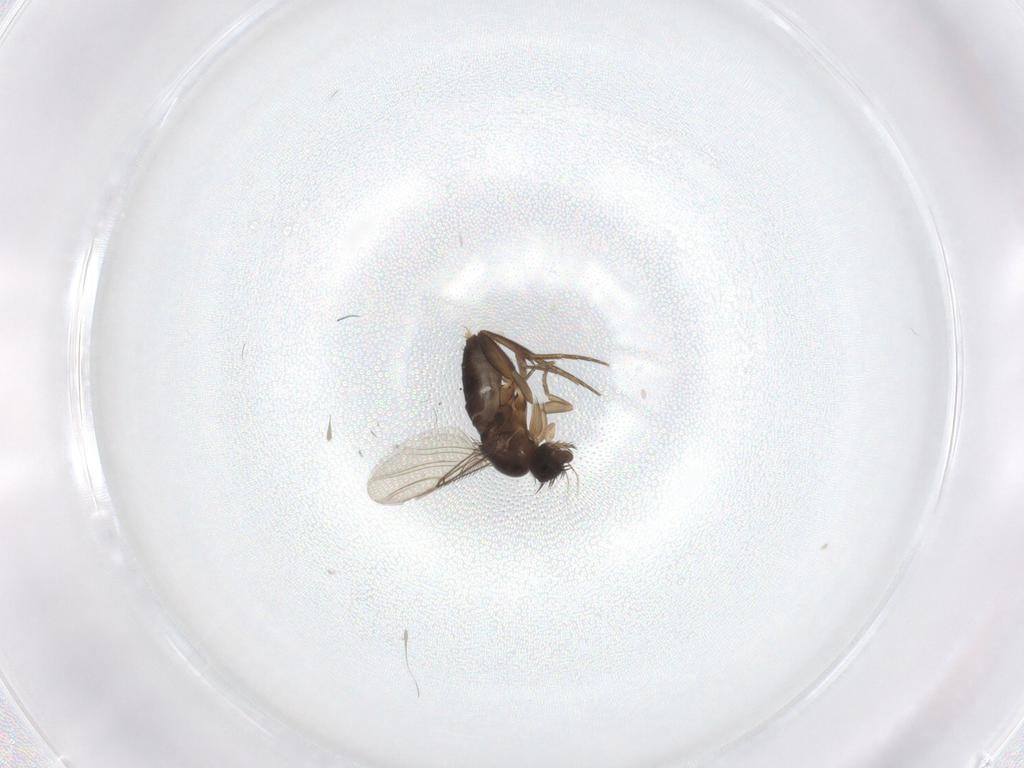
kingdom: Animalia
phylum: Arthropoda
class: Insecta
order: Diptera
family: Phoridae
